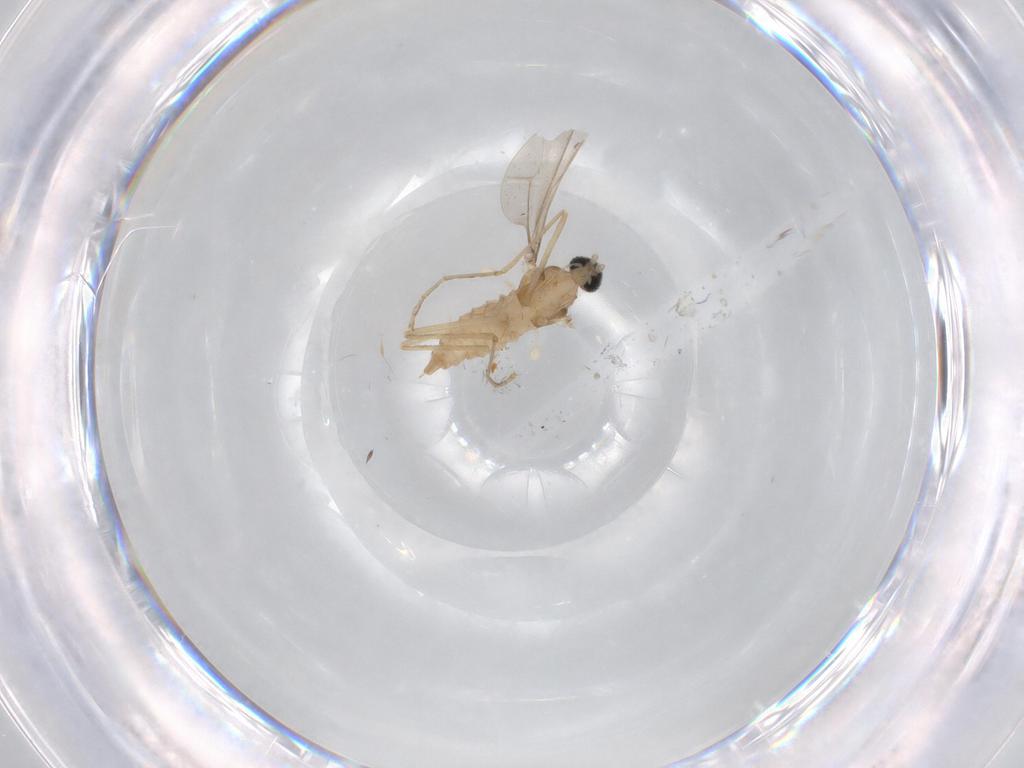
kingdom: Animalia
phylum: Arthropoda
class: Insecta
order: Diptera
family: Cecidomyiidae
